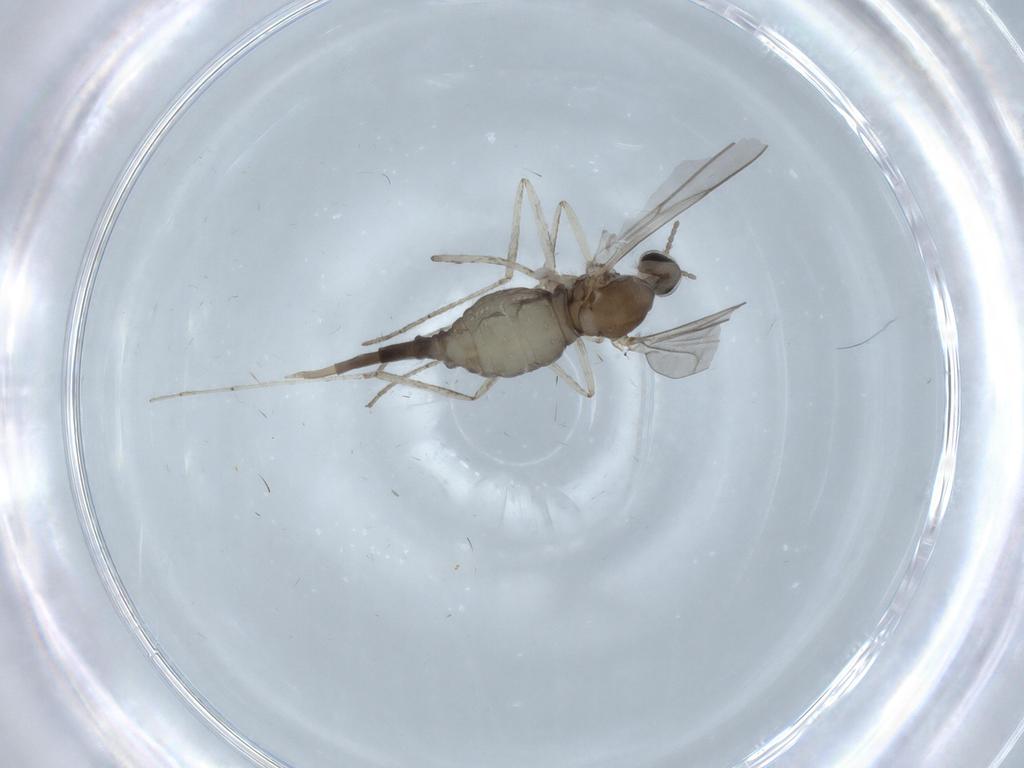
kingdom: Animalia
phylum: Arthropoda
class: Insecta
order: Diptera
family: Cecidomyiidae
